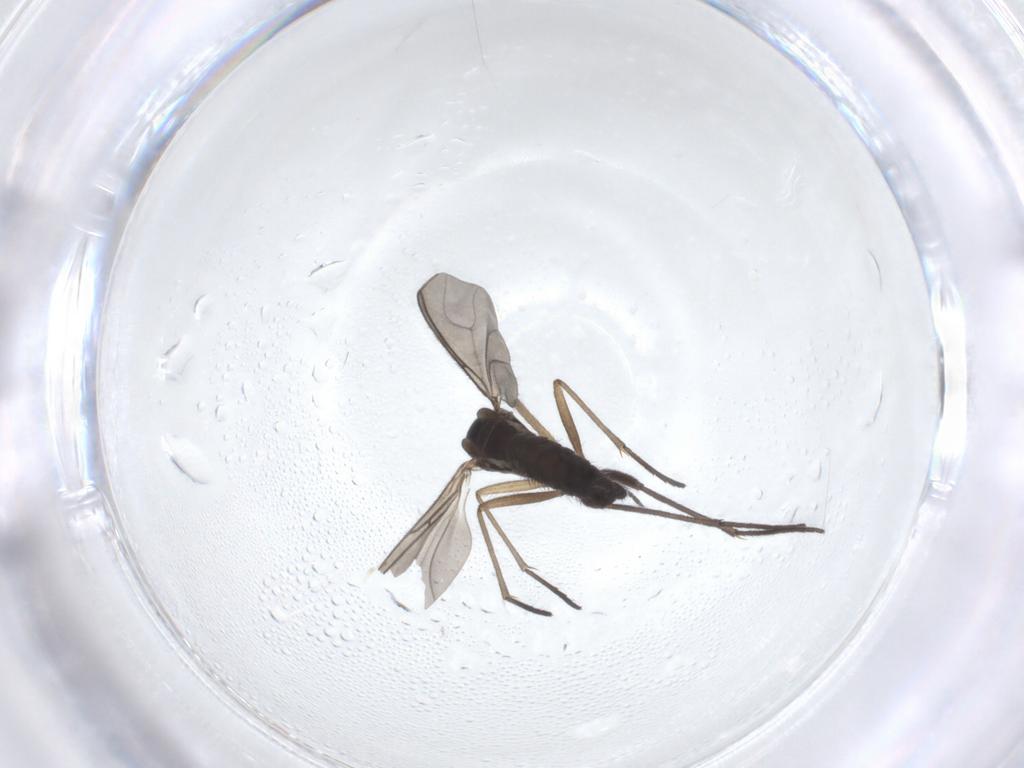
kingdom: Animalia
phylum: Arthropoda
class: Insecta
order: Diptera
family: Sciaridae
